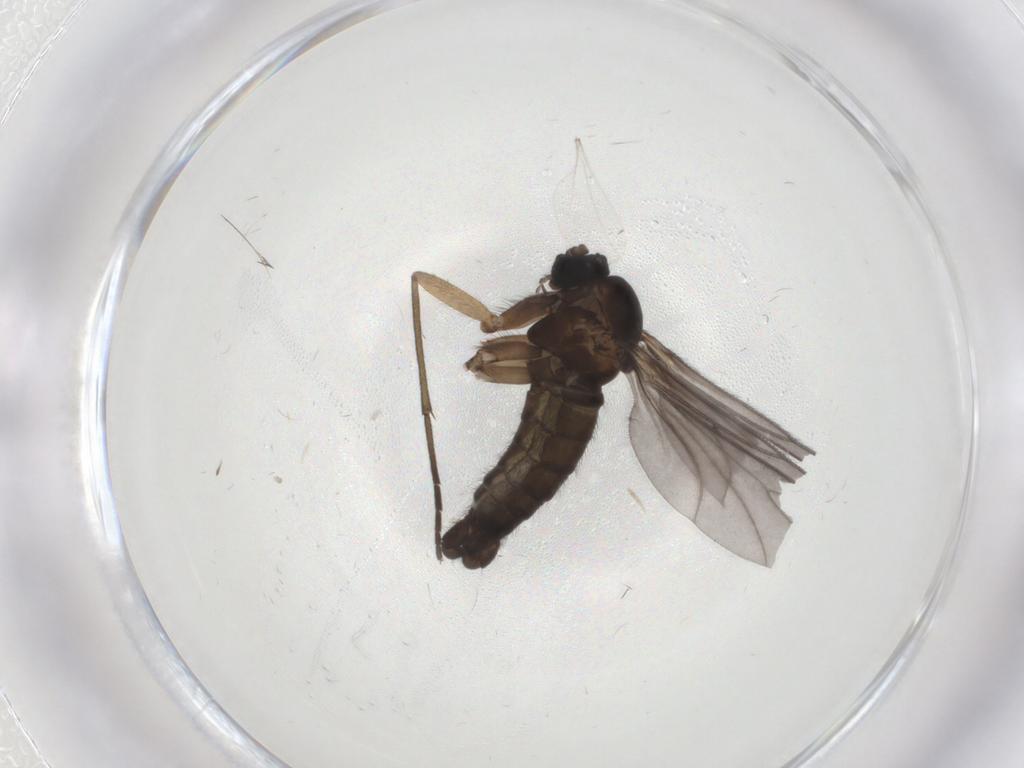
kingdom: Animalia
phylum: Arthropoda
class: Insecta
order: Diptera
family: Sciaridae
